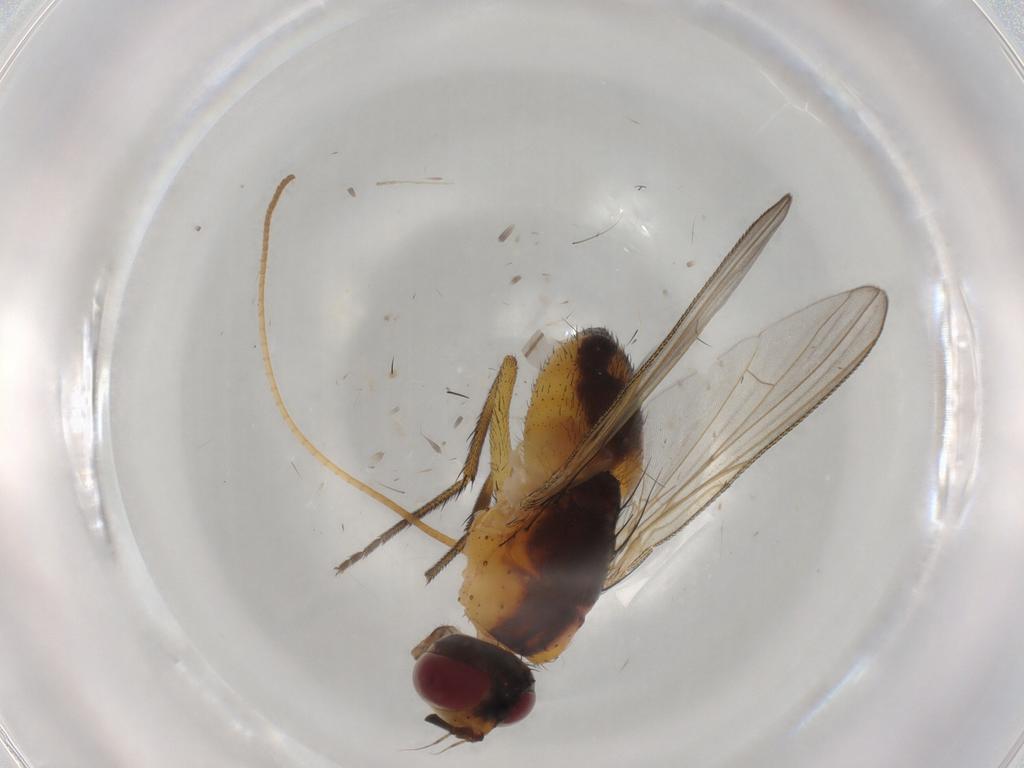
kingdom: Animalia
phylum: Arthropoda
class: Insecta
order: Diptera
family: Muscidae
